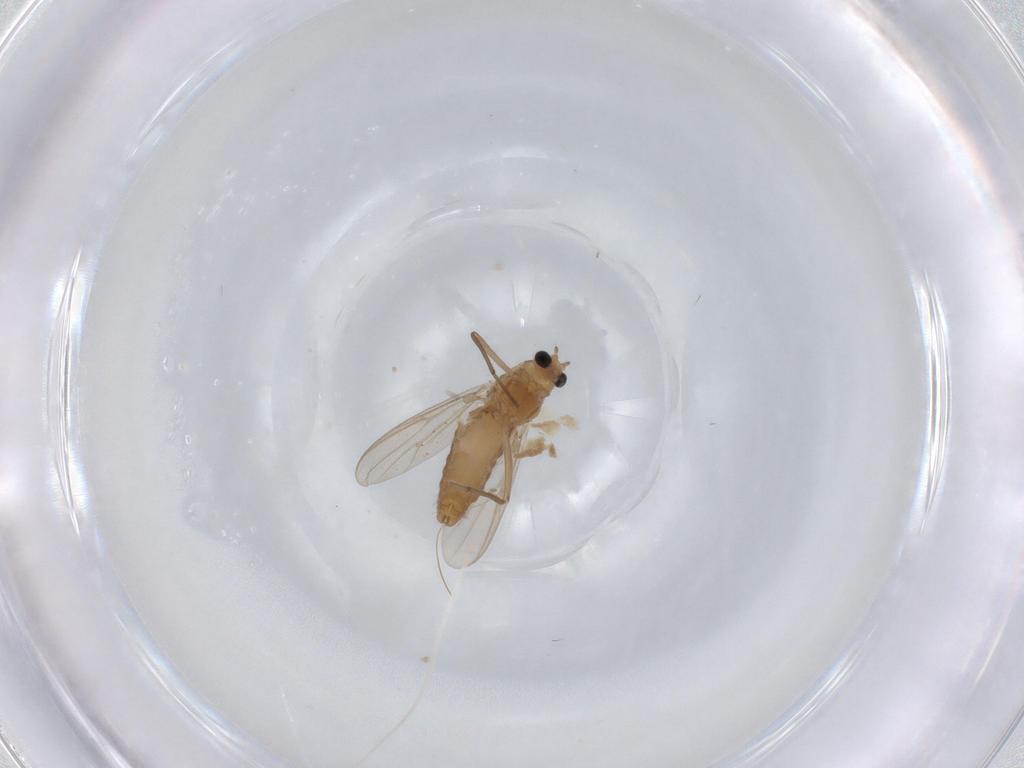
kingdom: Animalia
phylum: Arthropoda
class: Insecta
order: Diptera
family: Chironomidae
